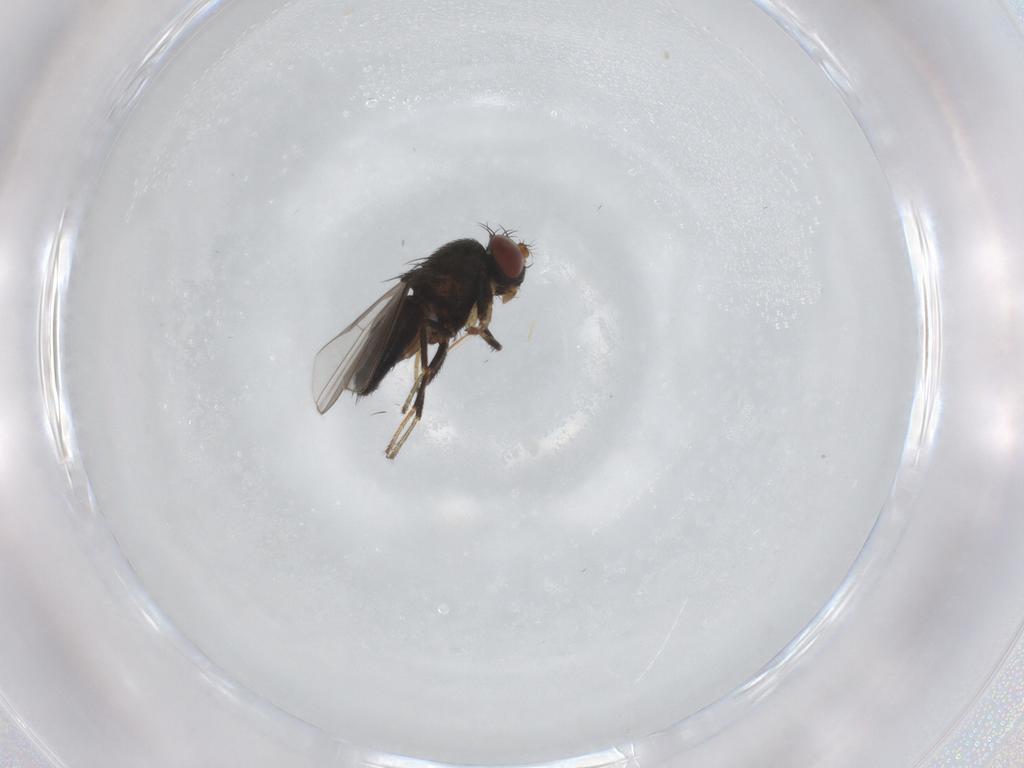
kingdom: Animalia
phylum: Arthropoda
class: Insecta
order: Diptera
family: Ephydridae
